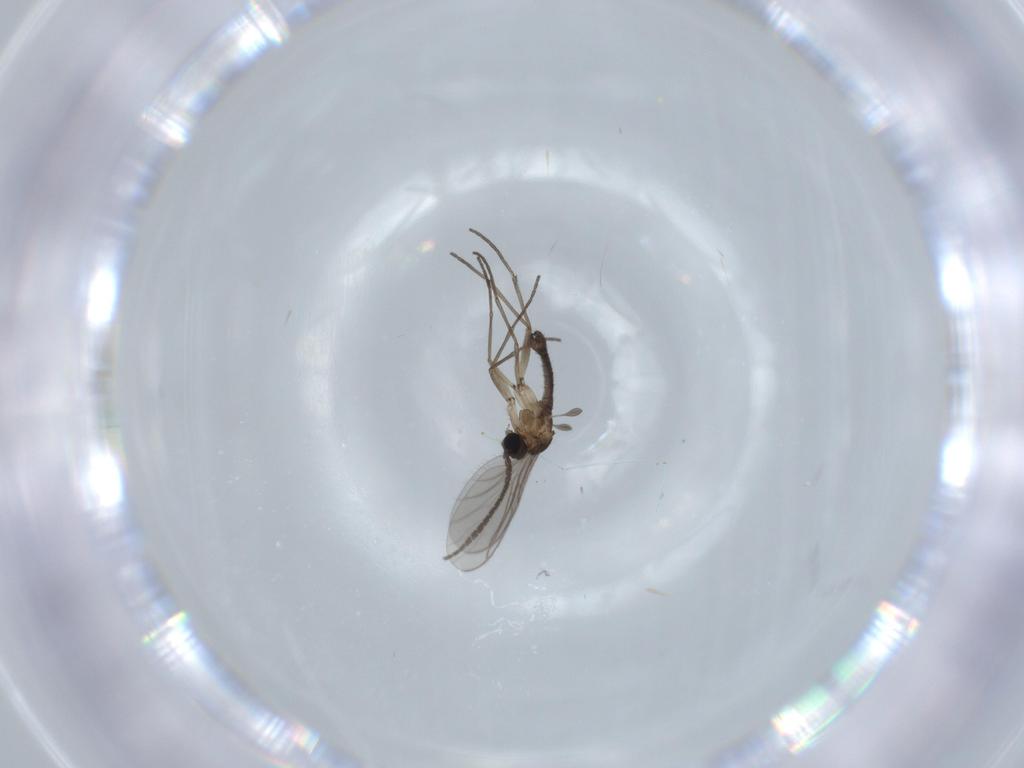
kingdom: Animalia
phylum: Arthropoda
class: Insecta
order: Diptera
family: Sciaridae
